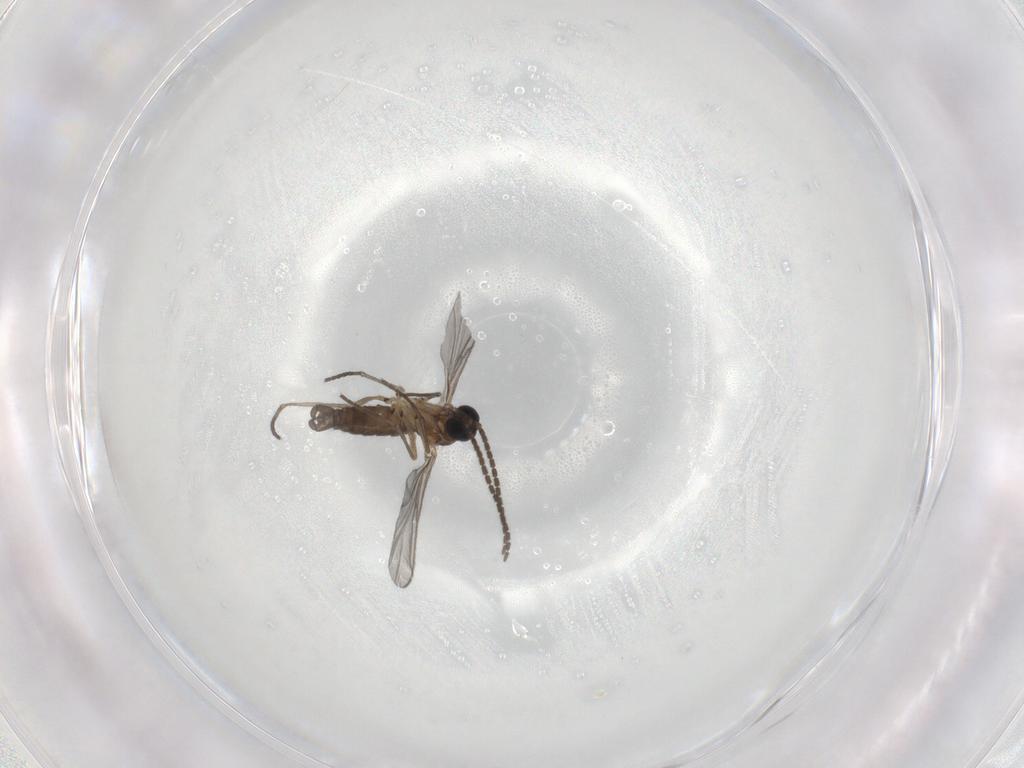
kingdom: Animalia
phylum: Arthropoda
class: Insecta
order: Diptera
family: Sciaridae
